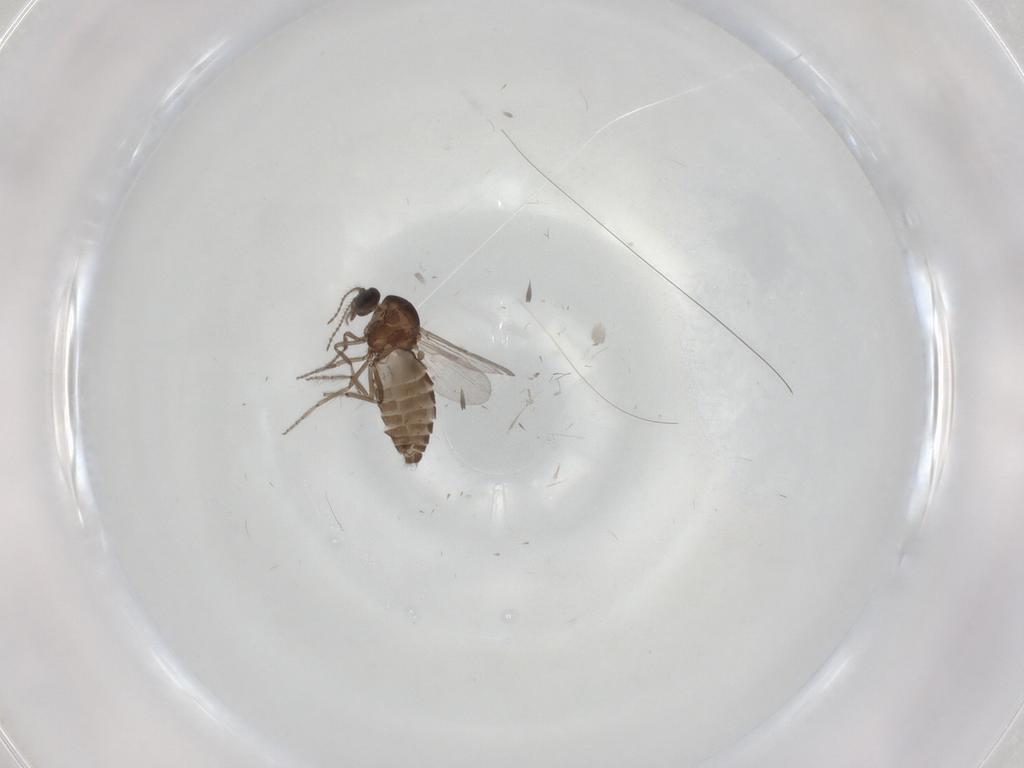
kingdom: Animalia
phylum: Arthropoda
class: Insecta
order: Diptera
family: Ceratopogonidae
